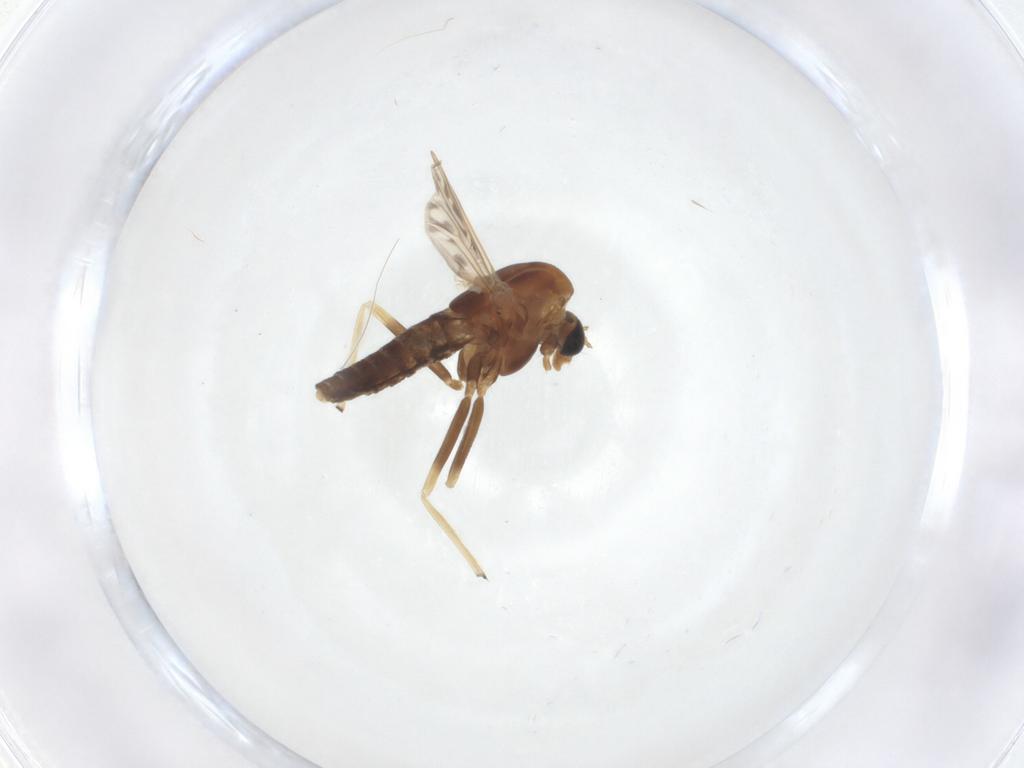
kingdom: Animalia
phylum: Arthropoda
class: Insecta
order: Diptera
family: Chironomidae
